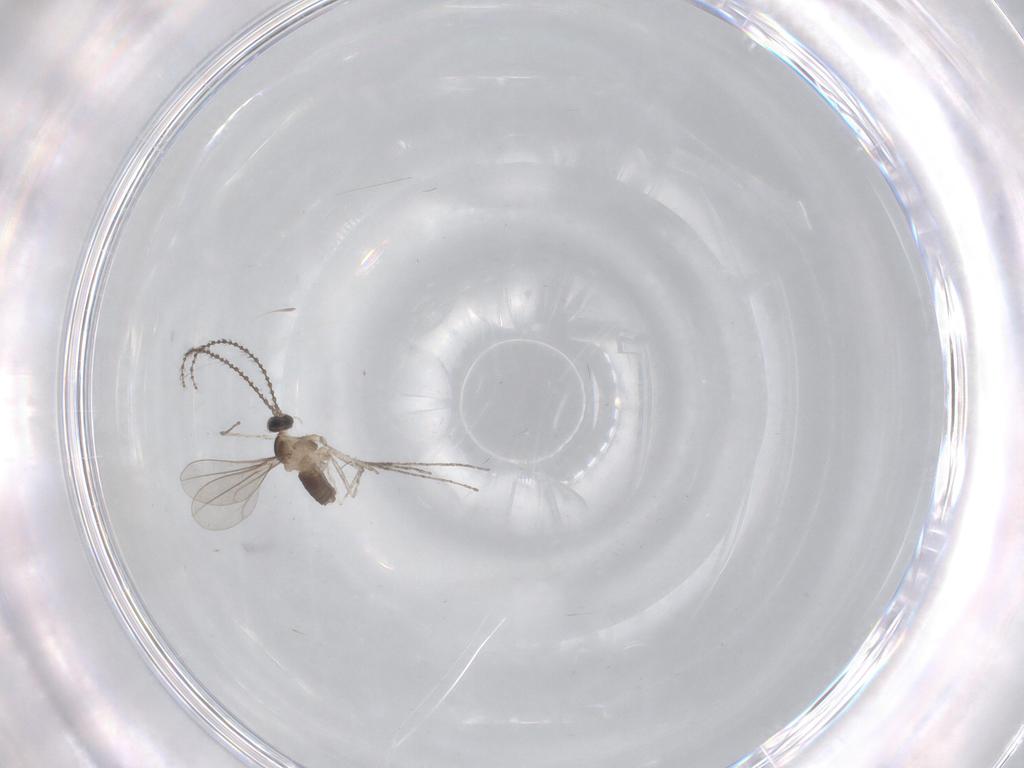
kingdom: Animalia
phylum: Arthropoda
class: Insecta
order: Diptera
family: Cecidomyiidae
